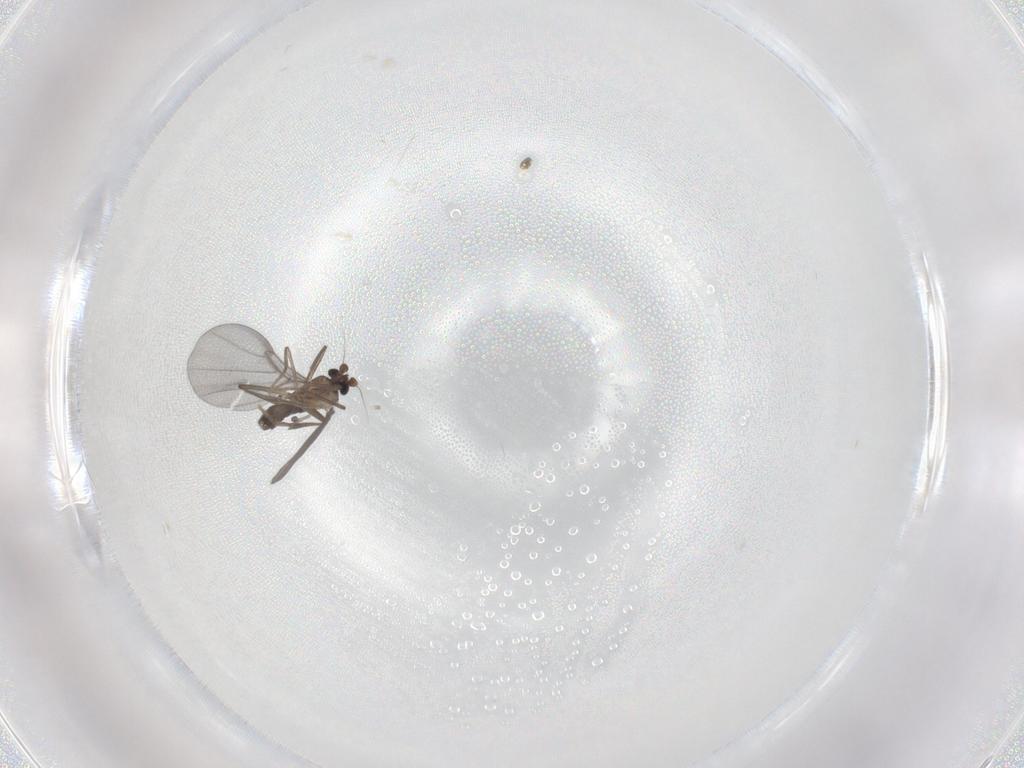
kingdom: Animalia
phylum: Arthropoda
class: Insecta
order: Diptera
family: Phoridae
